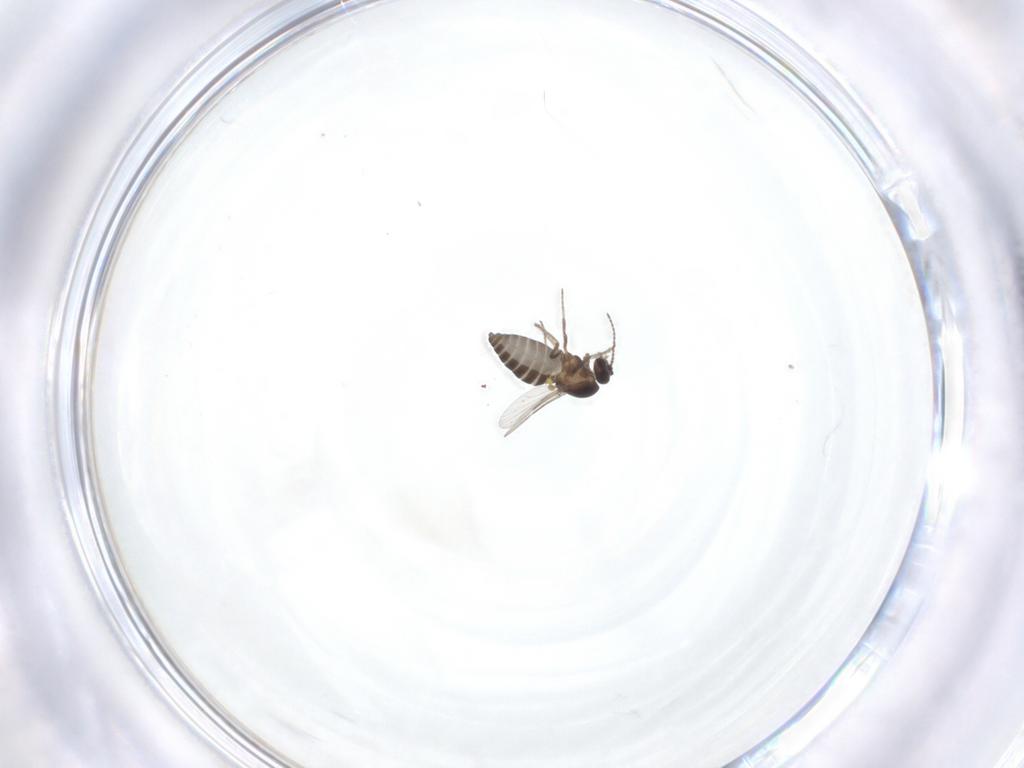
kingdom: Animalia
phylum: Arthropoda
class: Insecta
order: Diptera
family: Ceratopogonidae
